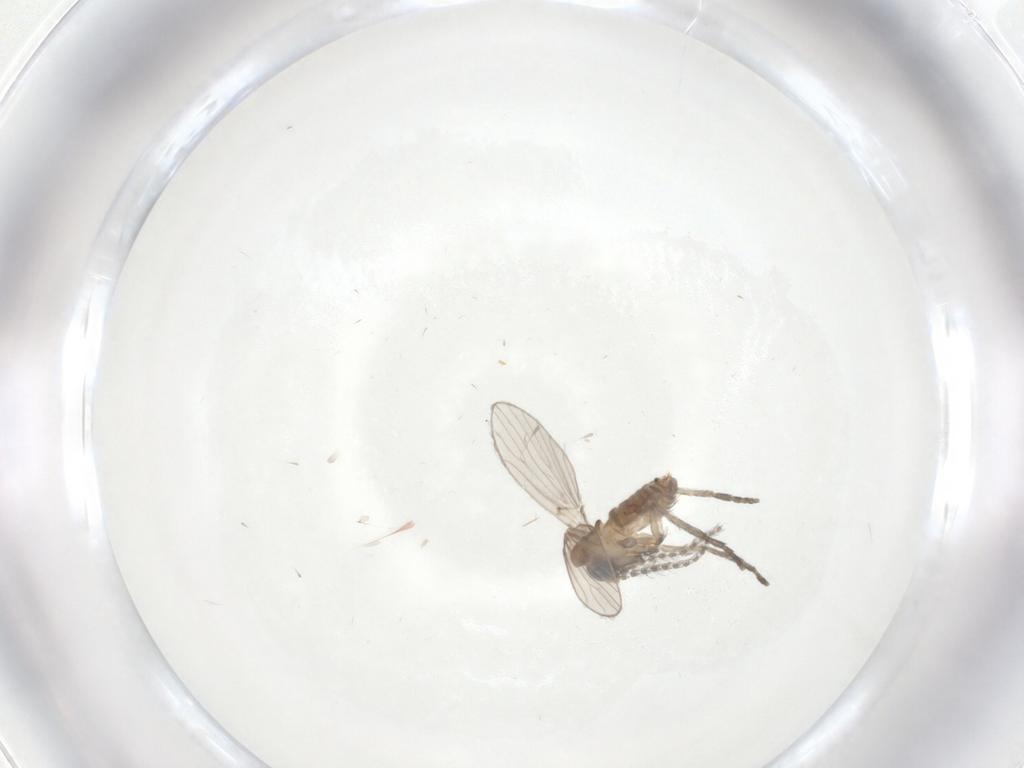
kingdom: Animalia
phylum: Arthropoda
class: Insecta
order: Diptera
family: Psychodidae
